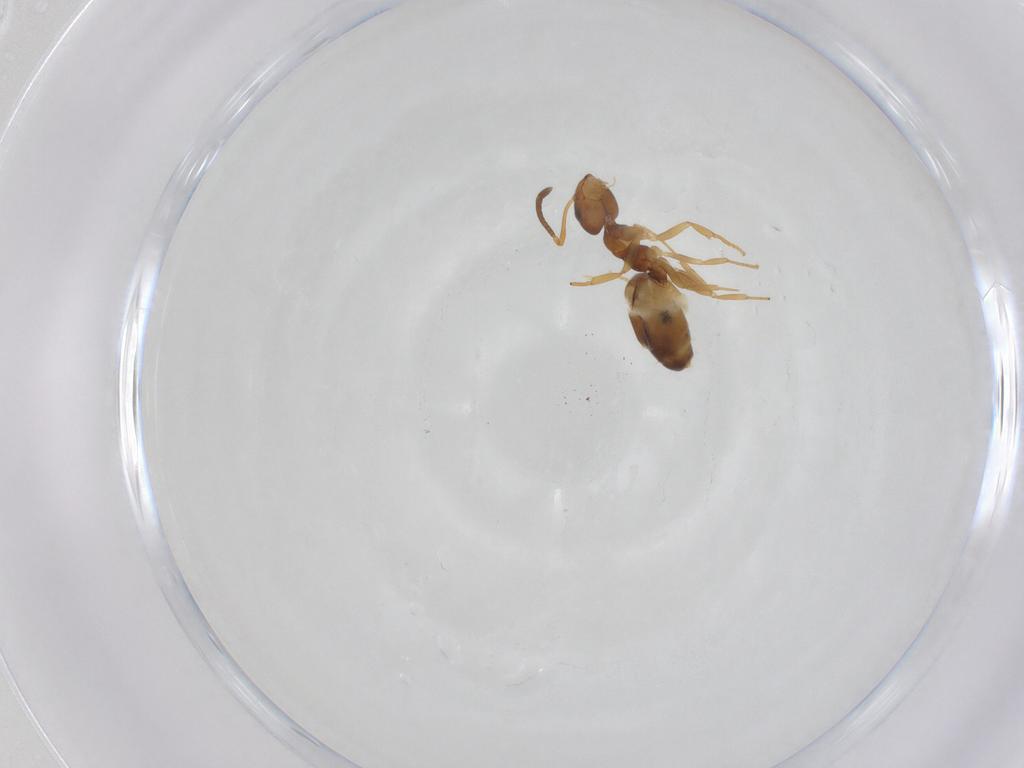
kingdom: Animalia
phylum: Arthropoda
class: Insecta
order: Hymenoptera
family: Formicidae
